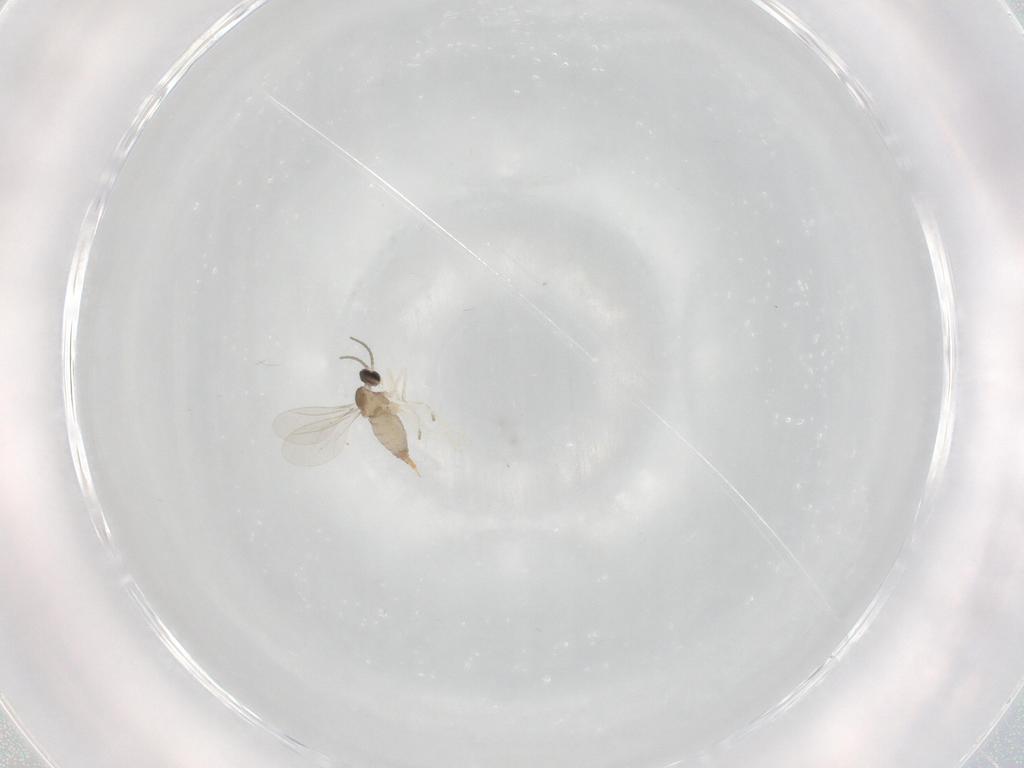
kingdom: Animalia
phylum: Arthropoda
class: Insecta
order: Diptera
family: Cecidomyiidae
